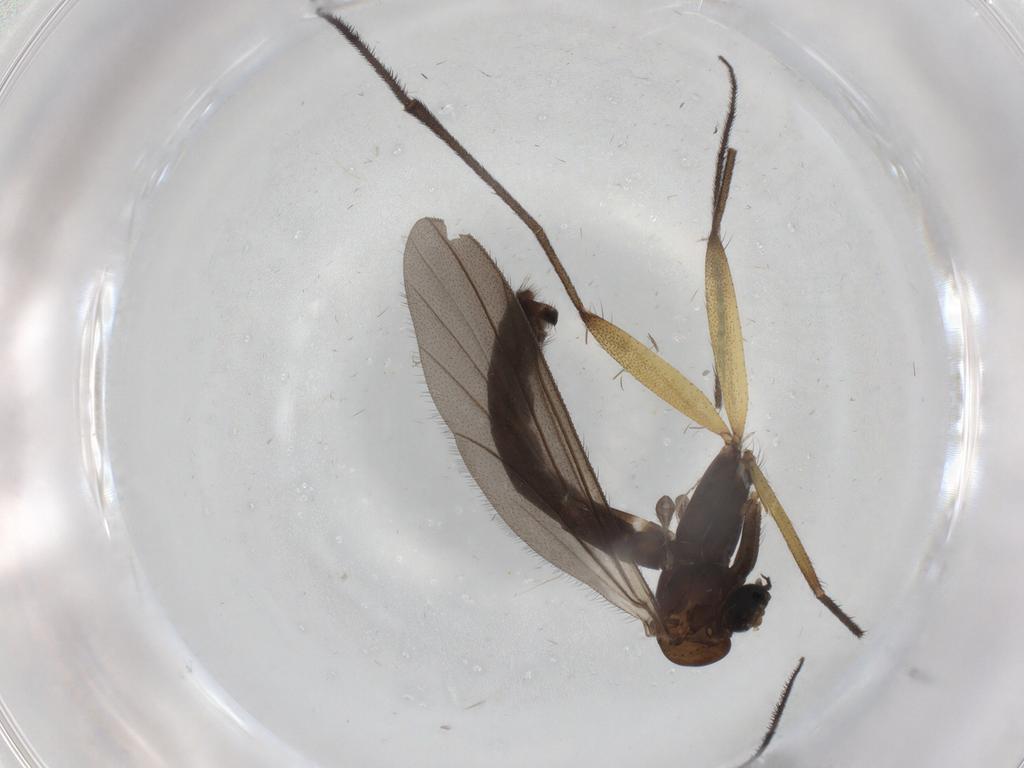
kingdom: Animalia
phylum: Arthropoda
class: Insecta
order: Diptera
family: Ditomyiidae
